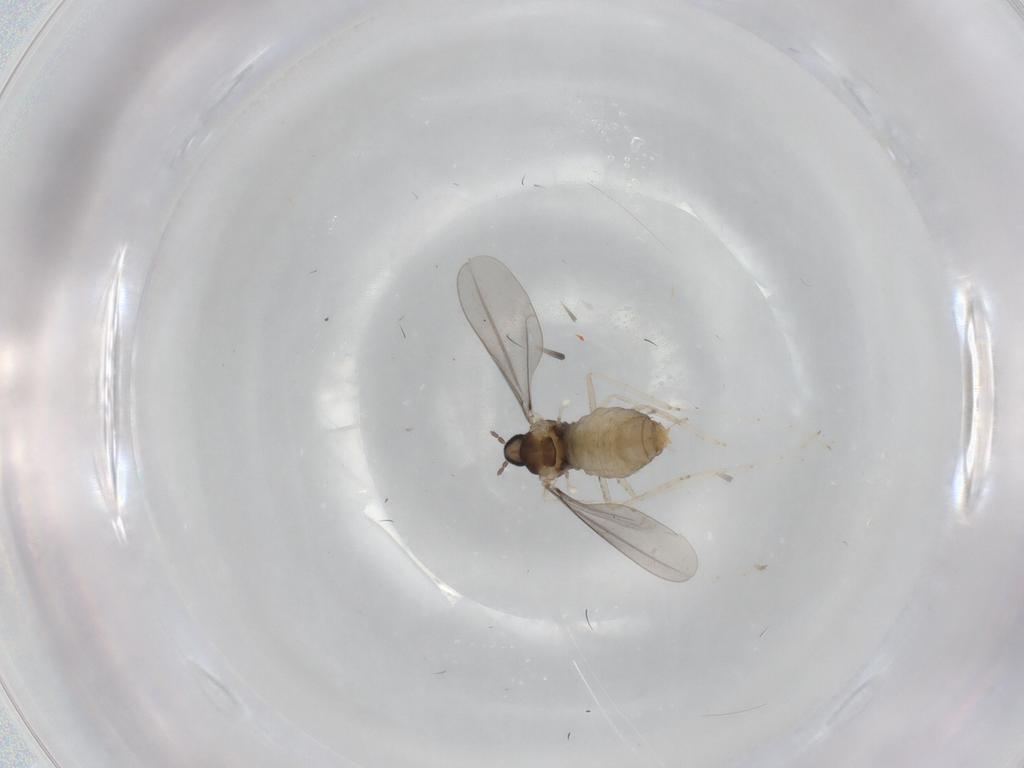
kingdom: Animalia
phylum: Arthropoda
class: Insecta
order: Diptera
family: Cecidomyiidae
